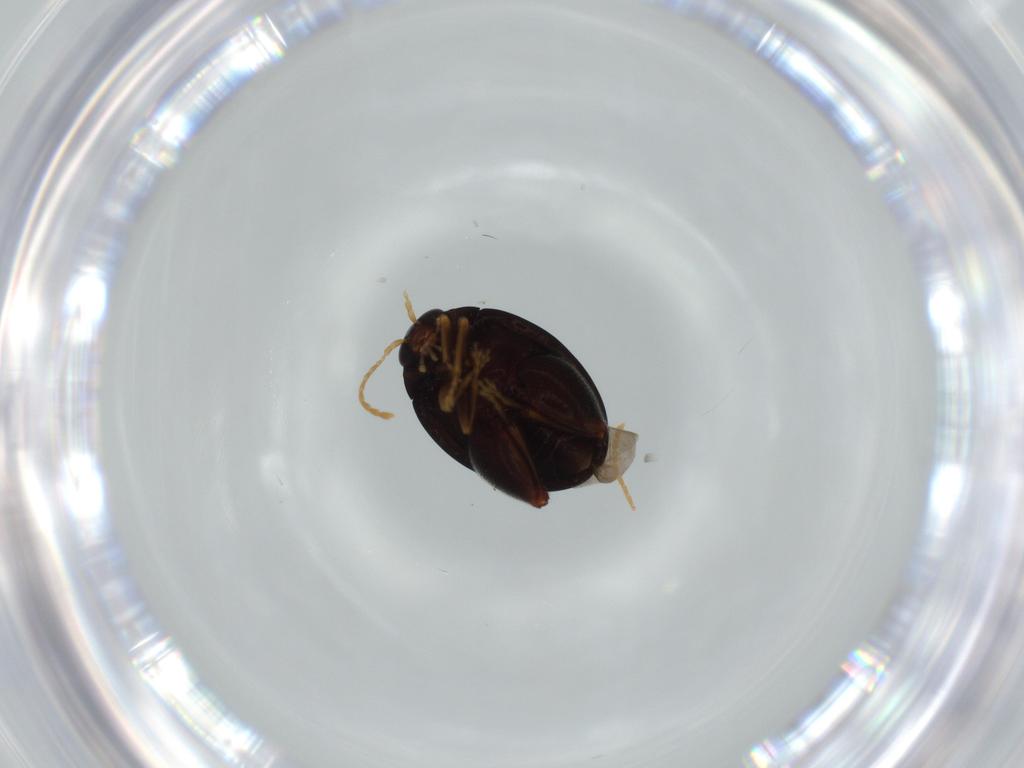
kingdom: Animalia
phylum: Arthropoda
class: Insecta
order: Coleoptera
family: Chrysomelidae
